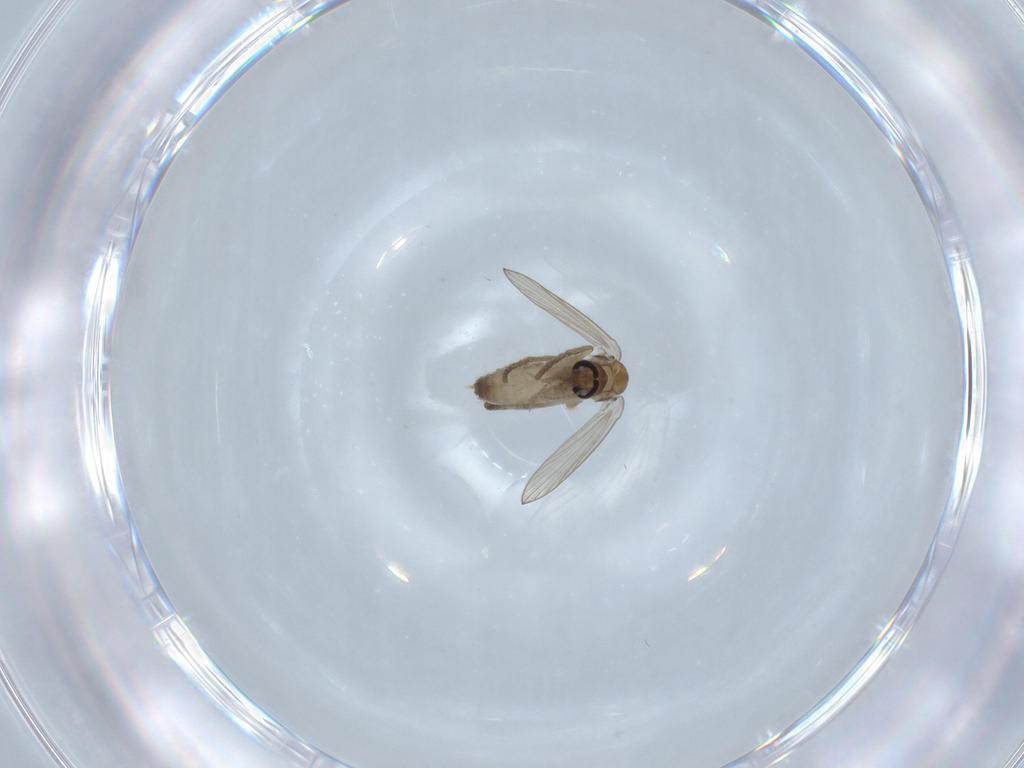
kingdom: Animalia
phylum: Arthropoda
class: Insecta
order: Diptera
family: Psychodidae
